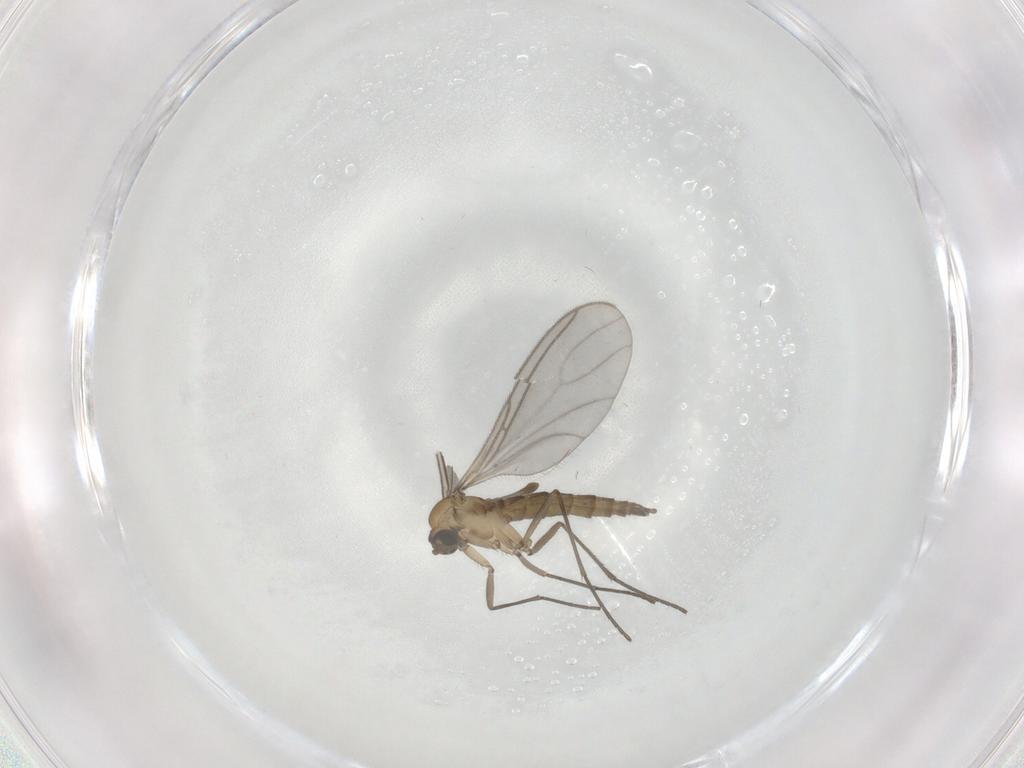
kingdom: Animalia
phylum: Arthropoda
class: Insecta
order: Diptera
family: Cecidomyiidae
